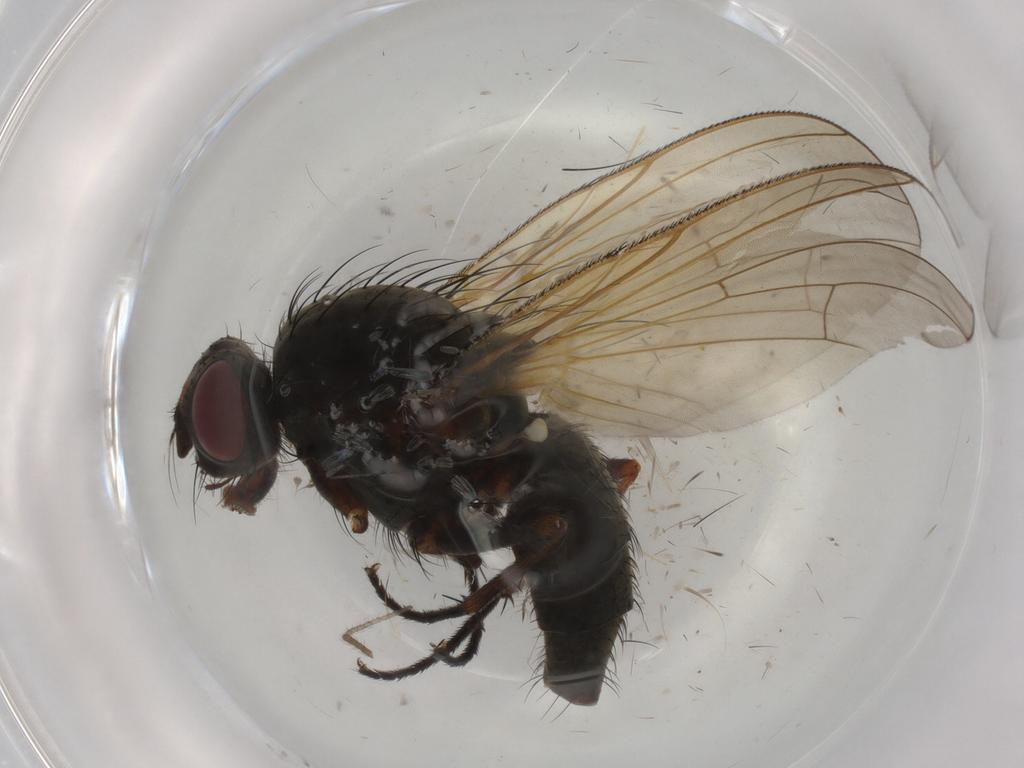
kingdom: Animalia
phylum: Arthropoda
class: Insecta
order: Diptera
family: Anthomyiidae
